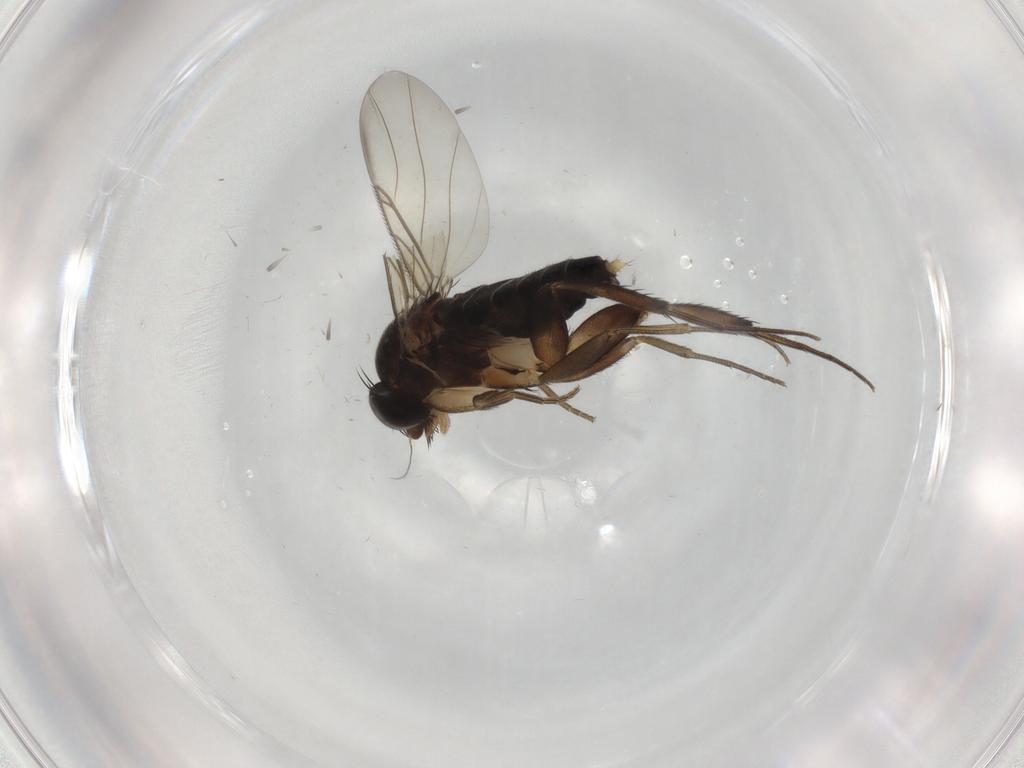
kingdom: Animalia
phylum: Arthropoda
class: Insecta
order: Diptera
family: Phoridae
